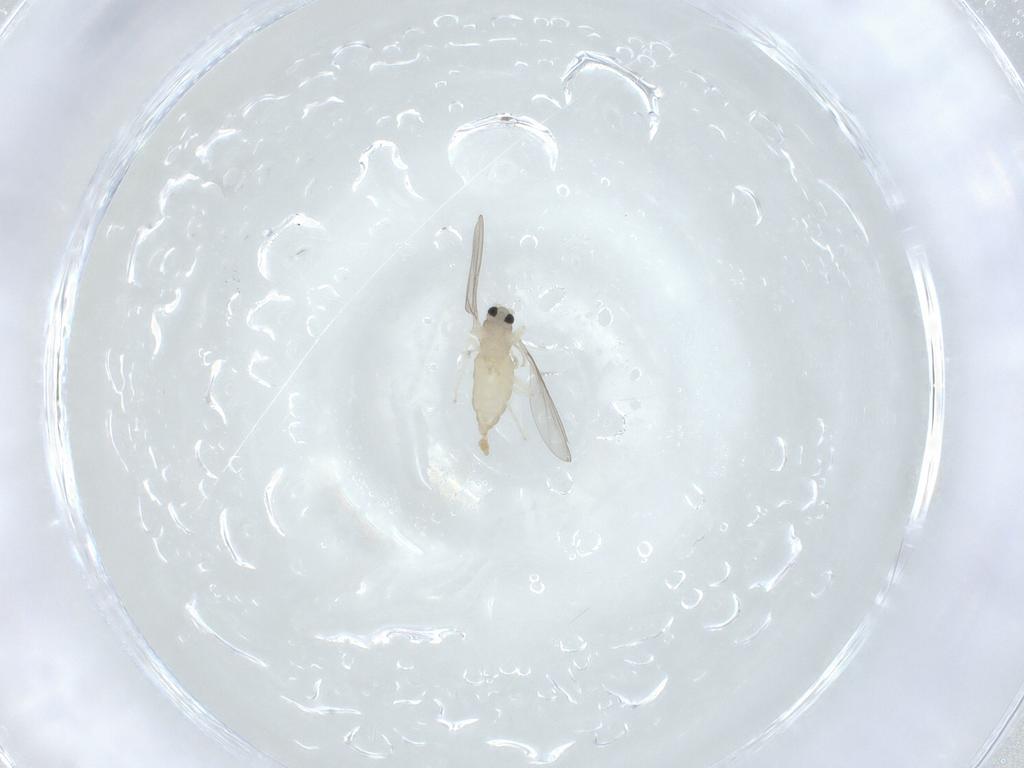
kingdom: Animalia
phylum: Arthropoda
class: Insecta
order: Diptera
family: Cecidomyiidae
